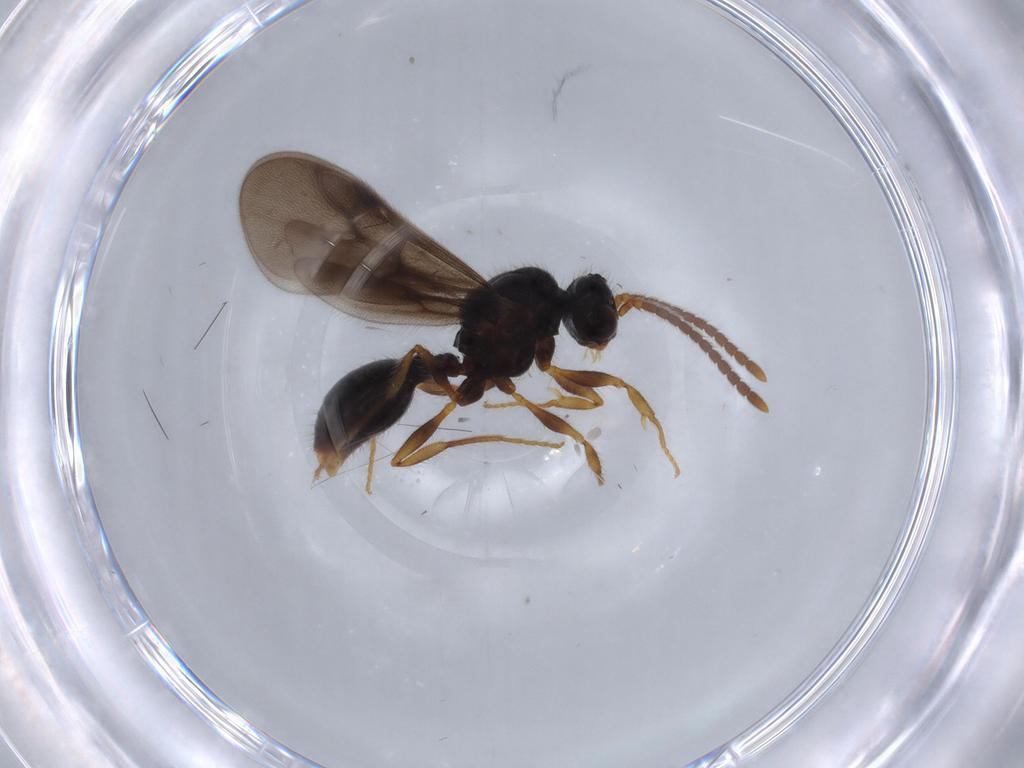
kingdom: Animalia
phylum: Arthropoda
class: Insecta
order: Hymenoptera
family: Formicidae
